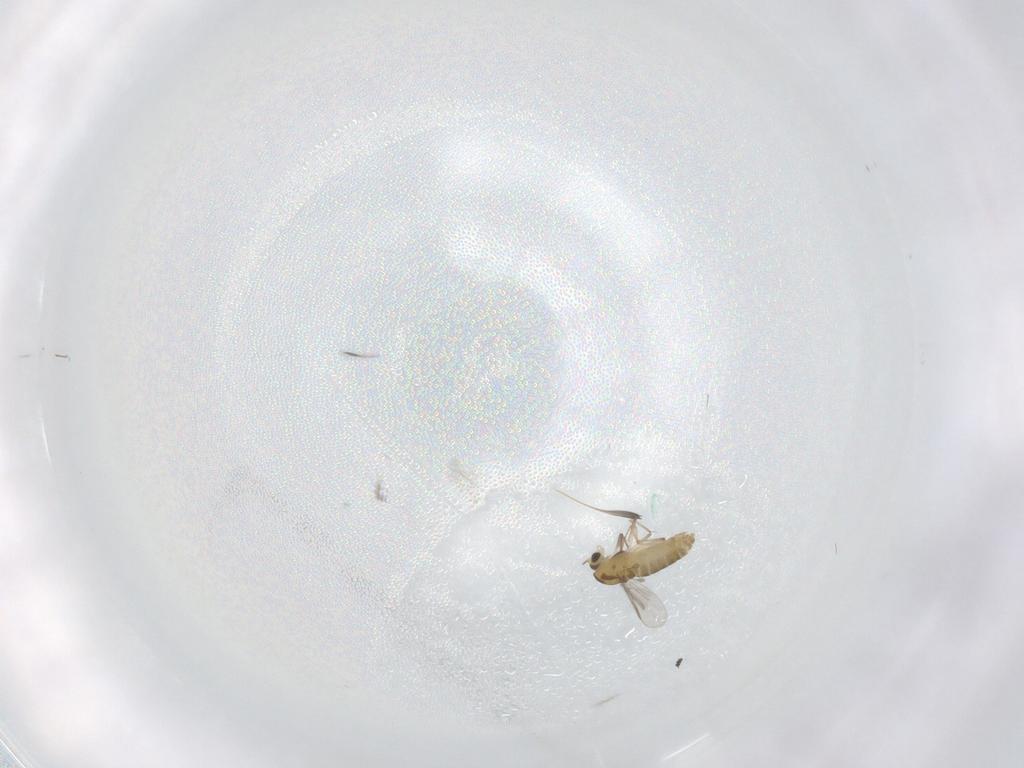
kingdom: Animalia
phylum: Arthropoda
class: Insecta
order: Diptera
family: Chironomidae
